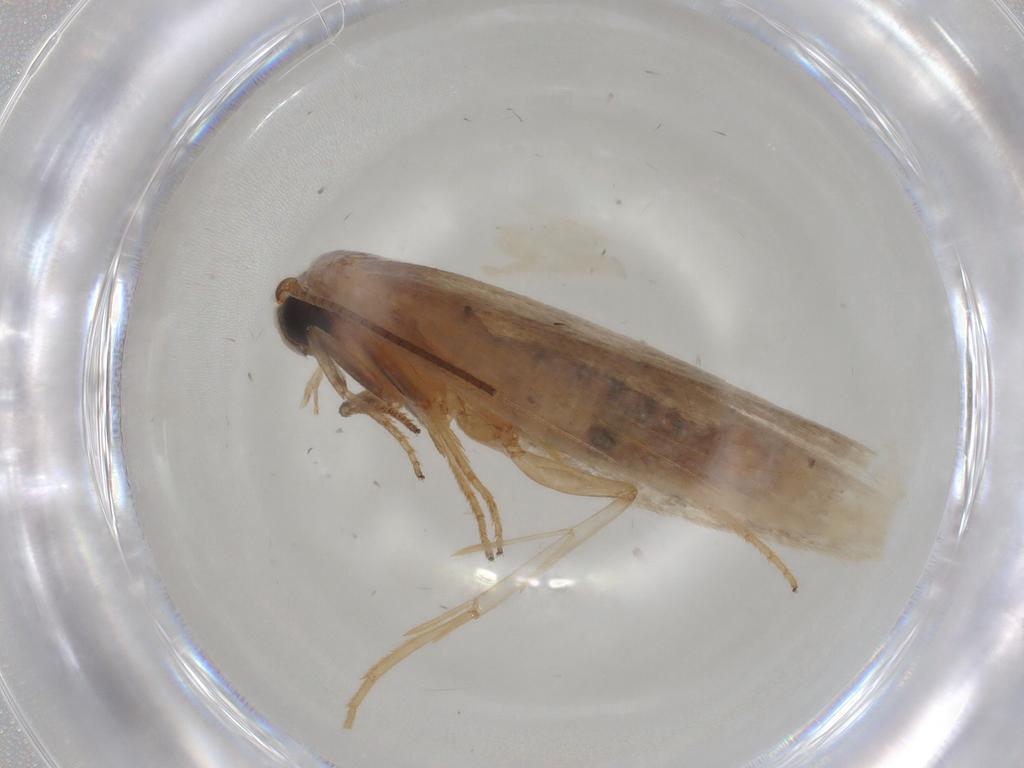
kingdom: Animalia
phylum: Arthropoda
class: Insecta
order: Lepidoptera
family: Gelechiidae
